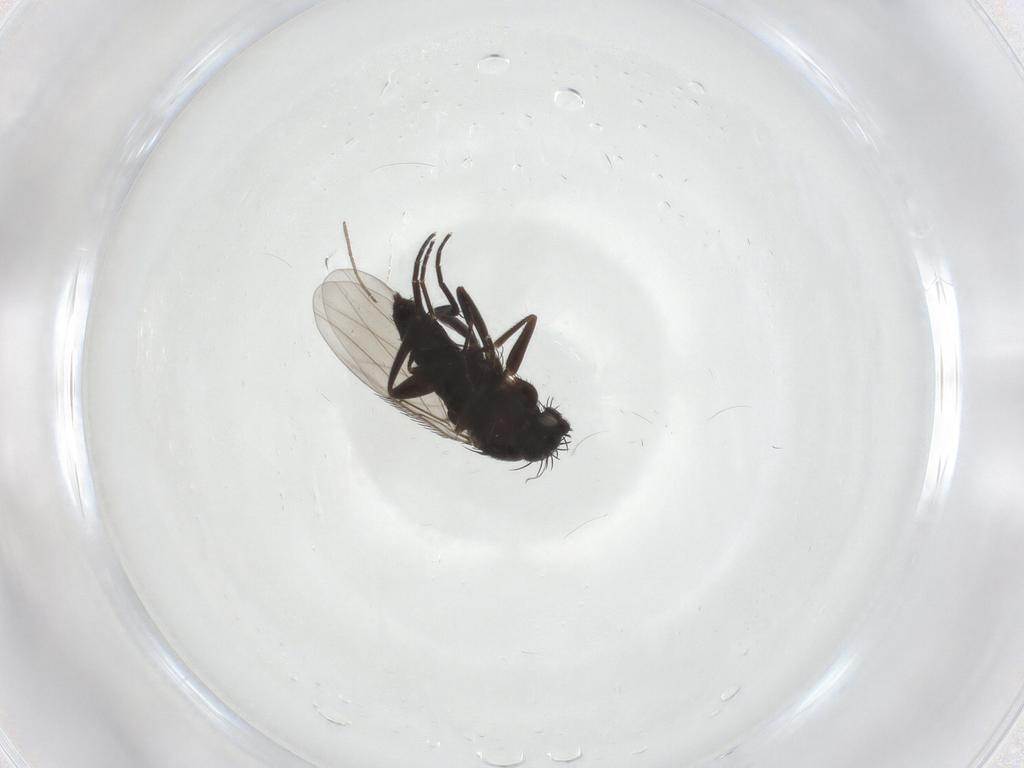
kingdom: Animalia
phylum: Arthropoda
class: Insecta
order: Diptera
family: Phoridae
